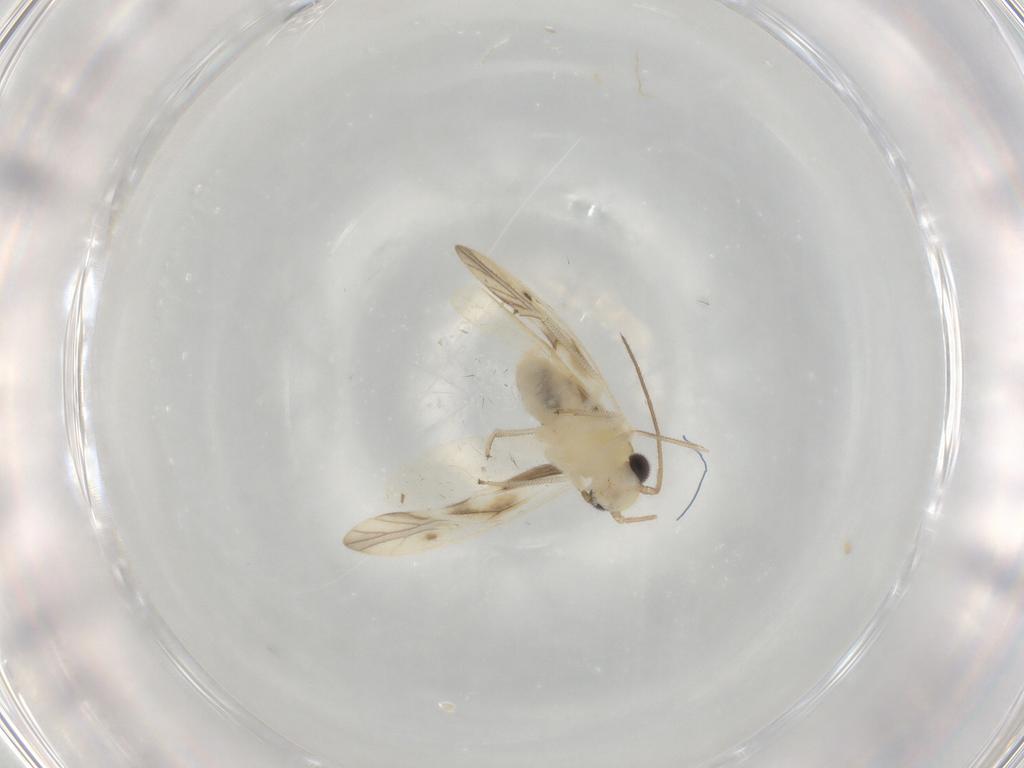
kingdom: Animalia
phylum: Arthropoda
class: Insecta
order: Psocodea
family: Caeciliusidae
